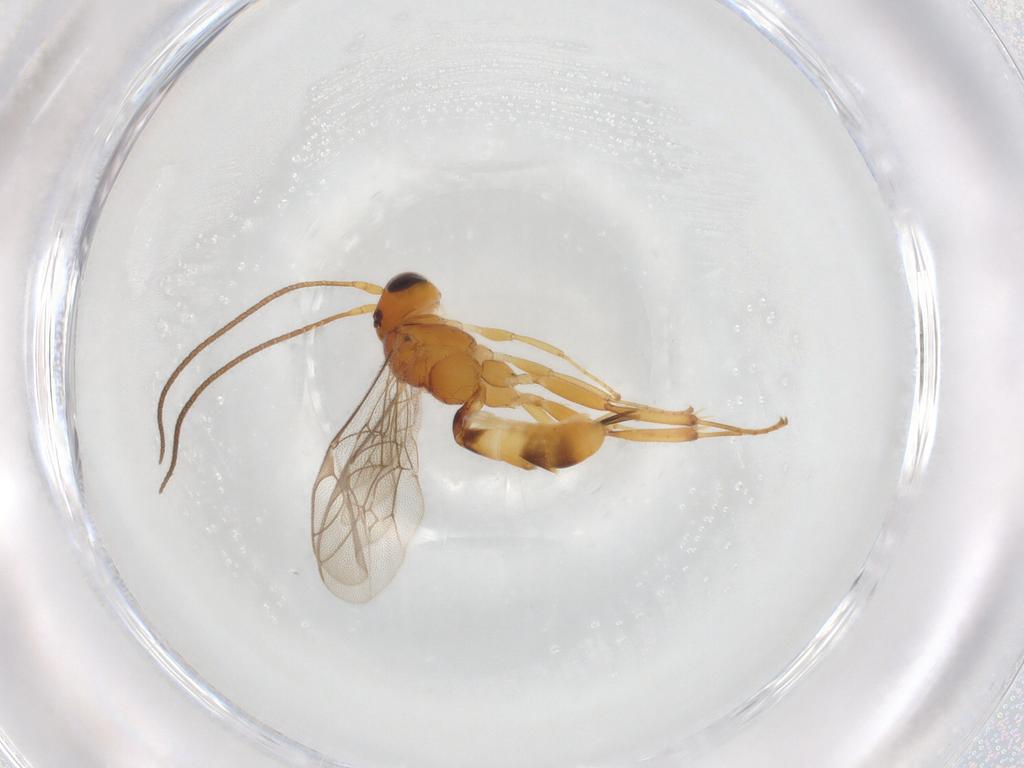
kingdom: Animalia
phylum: Arthropoda
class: Insecta
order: Hymenoptera
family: Ichneumonidae
